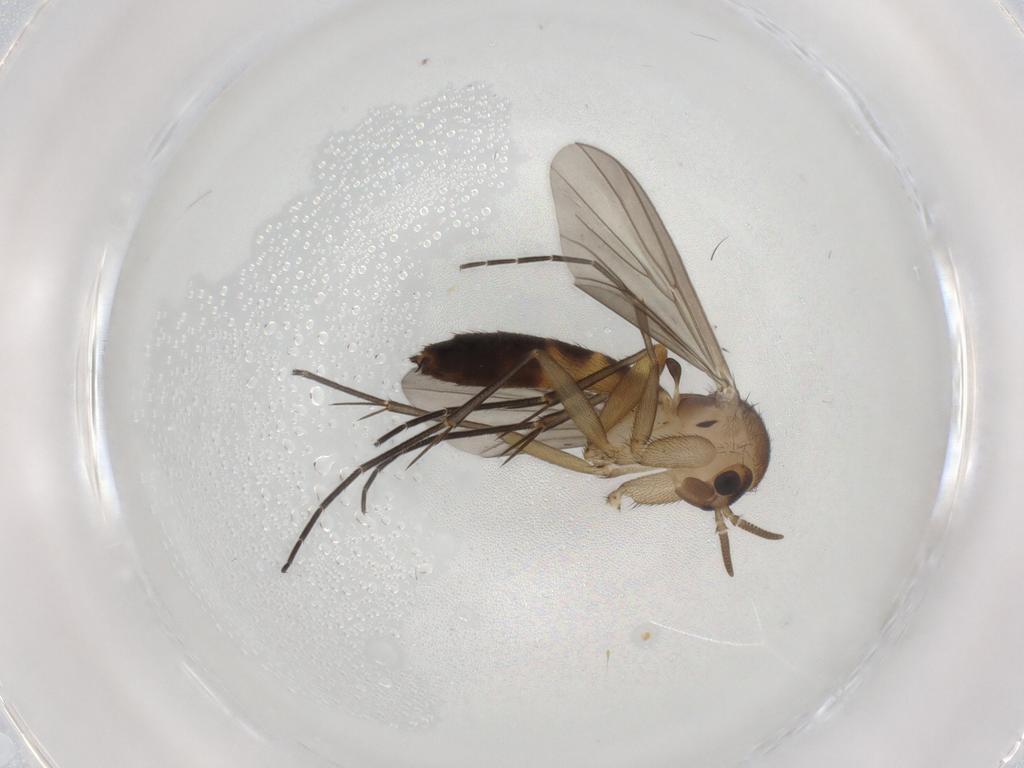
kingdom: Animalia
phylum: Arthropoda
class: Insecta
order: Diptera
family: Mycetophilidae
